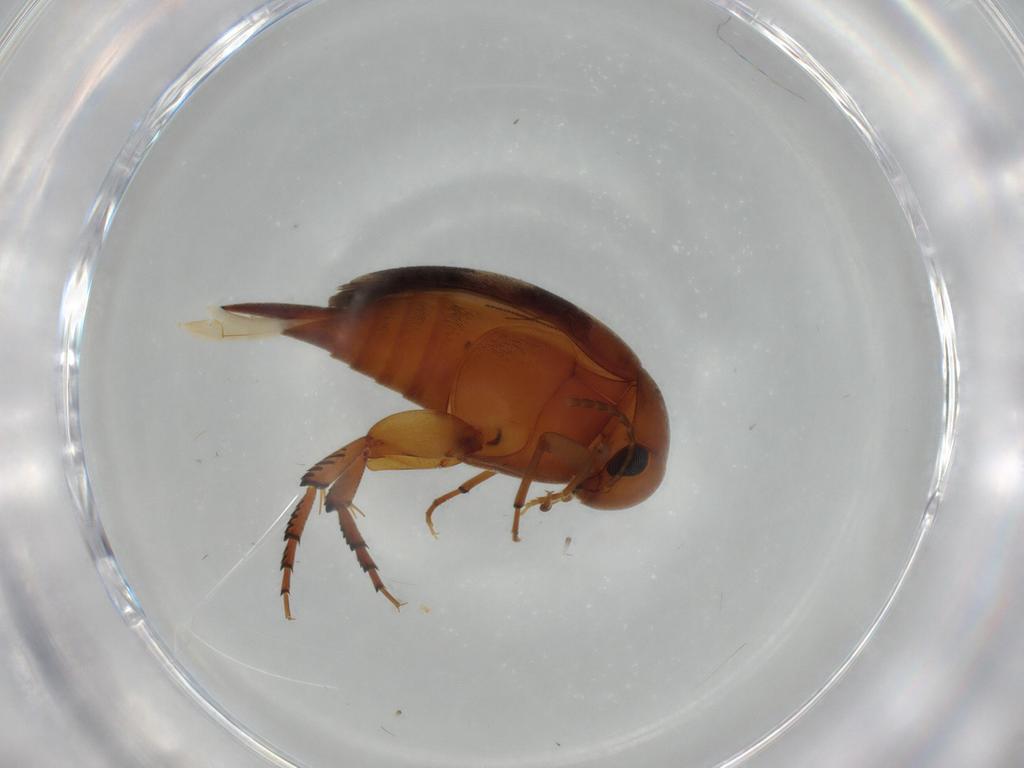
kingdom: Animalia
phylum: Arthropoda
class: Insecta
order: Coleoptera
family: Mordellidae
